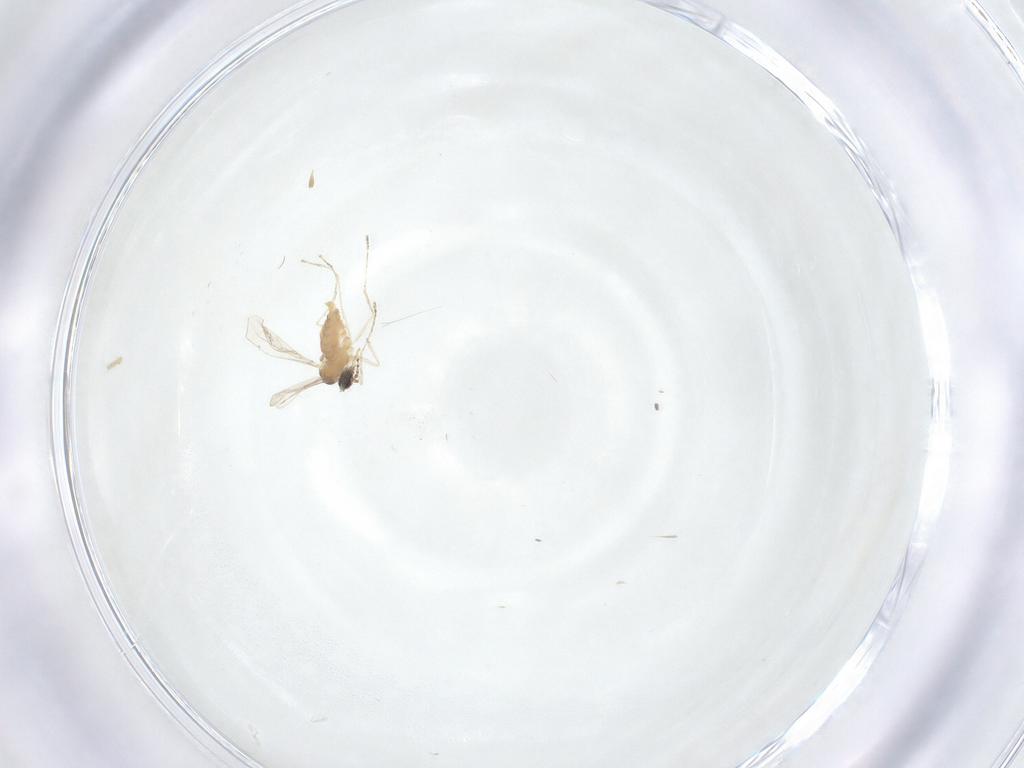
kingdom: Animalia
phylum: Arthropoda
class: Insecta
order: Diptera
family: Cecidomyiidae
